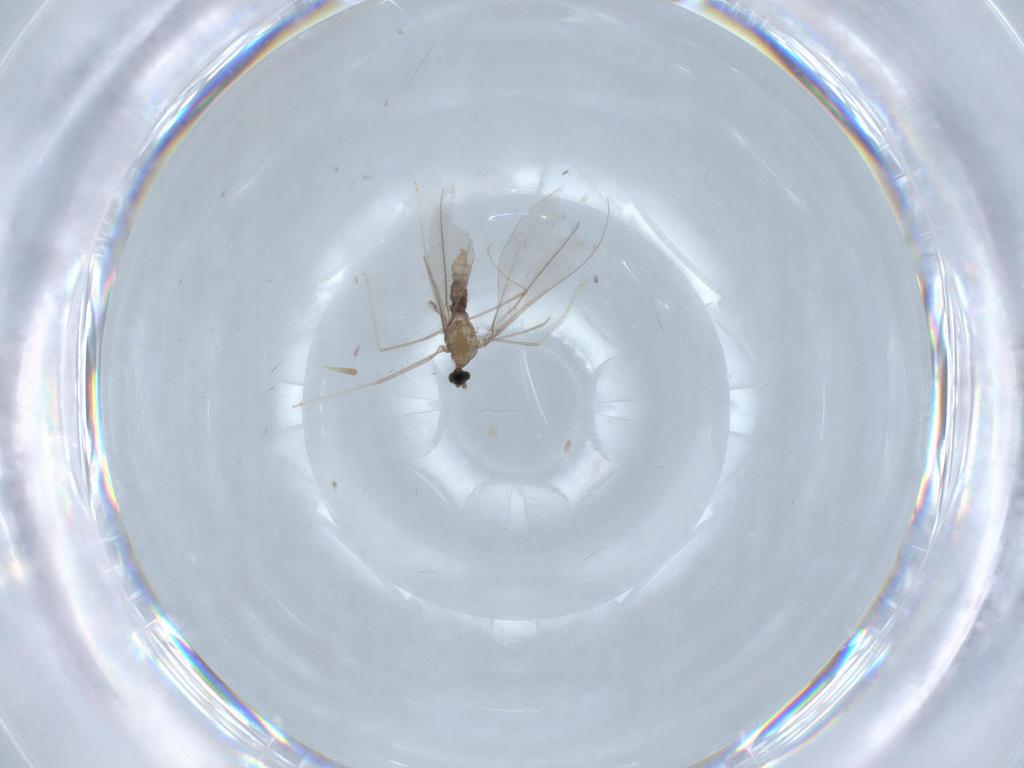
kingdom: Animalia
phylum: Arthropoda
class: Insecta
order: Diptera
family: Cecidomyiidae
